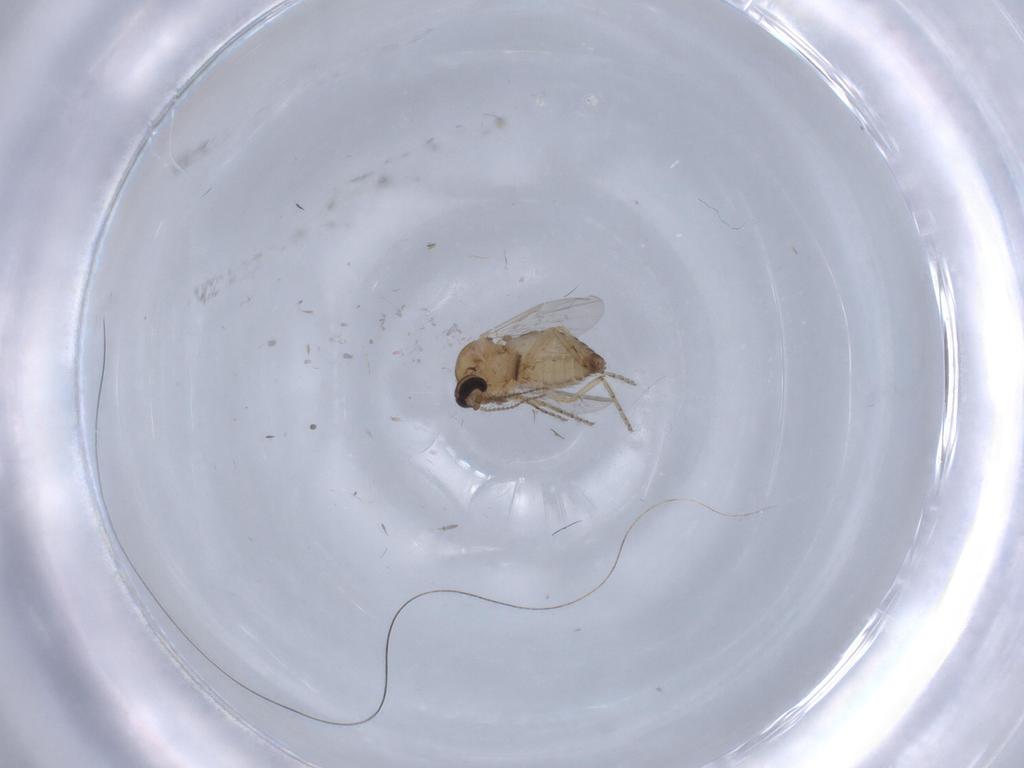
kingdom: Animalia
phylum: Arthropoda
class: Insecta
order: Diptera
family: Ceratopogonidae
